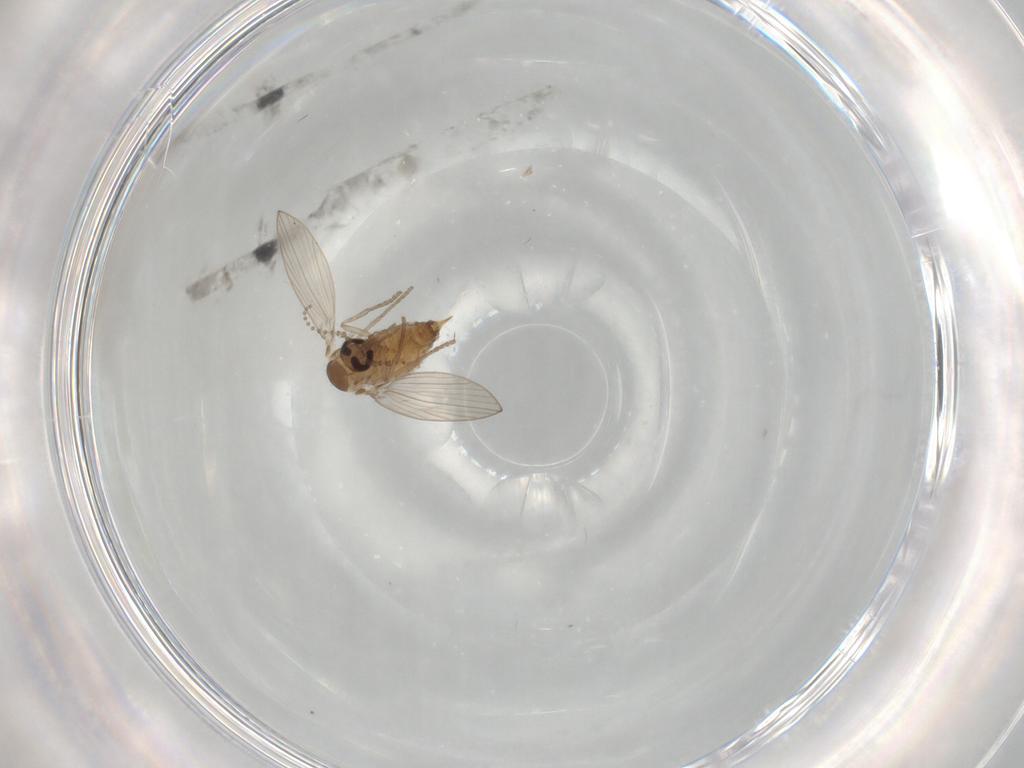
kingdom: Animalia
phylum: Arthropoda
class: Insecta
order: Diptera
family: Psychodidae
